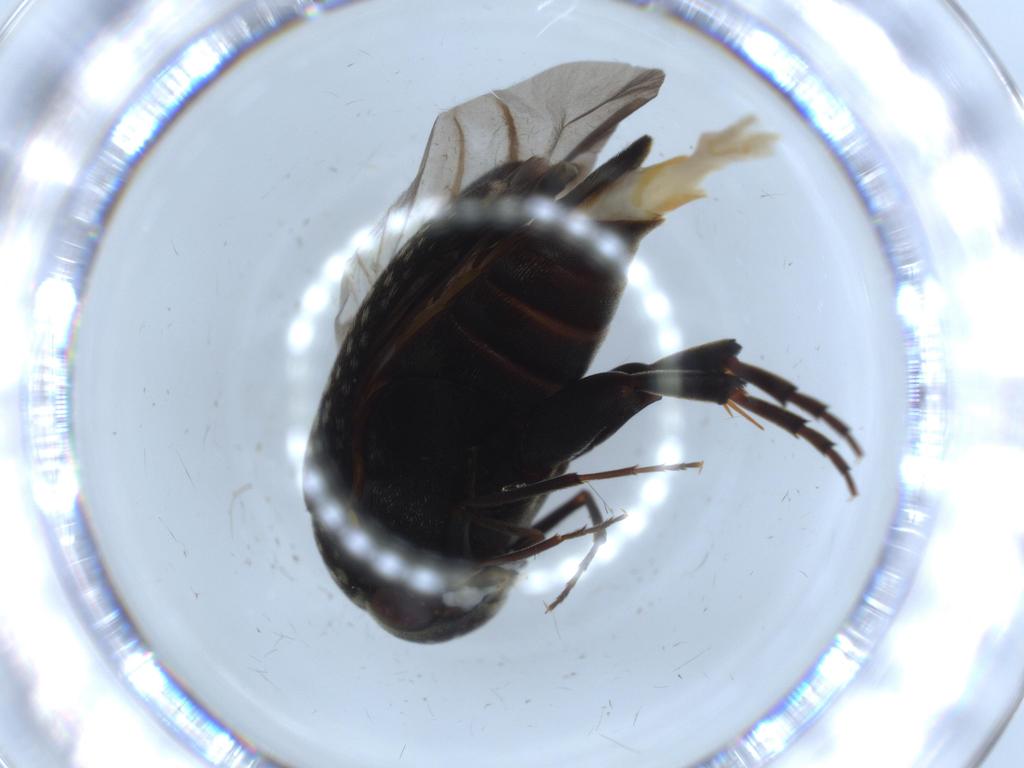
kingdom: Animalia
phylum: Arthropoda
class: Insecta
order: Coleoptera
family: Mordellidae
